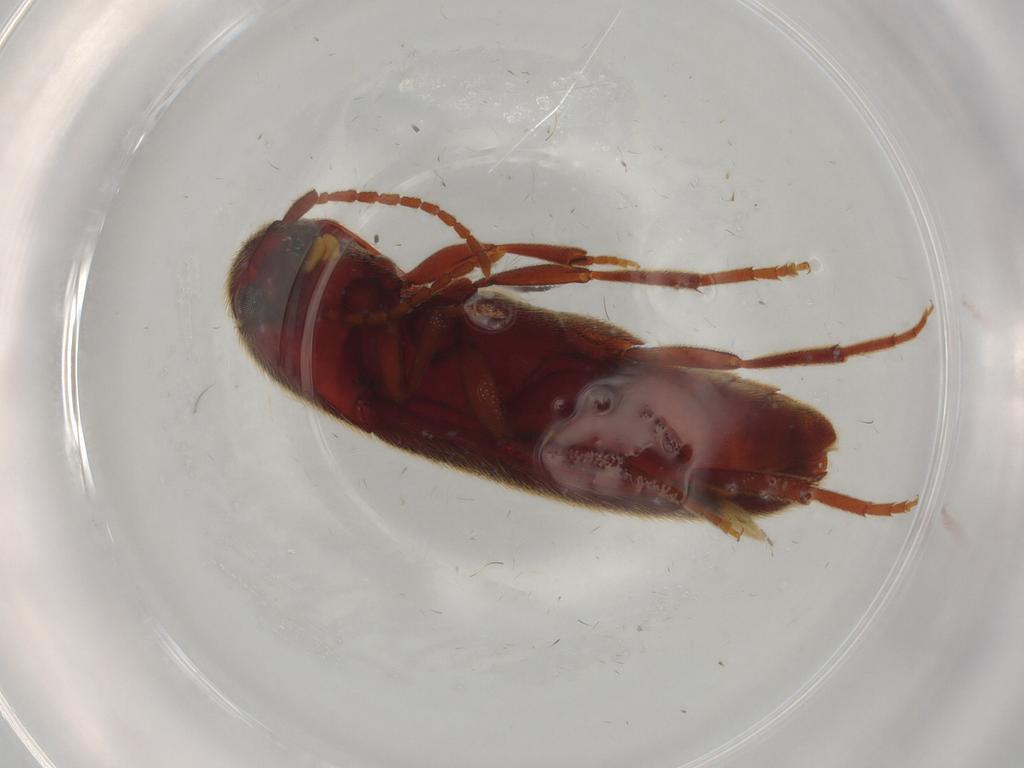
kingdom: Animalia
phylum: Arthropoda
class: Insecta
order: Coleoptera
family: Eucnemidae
